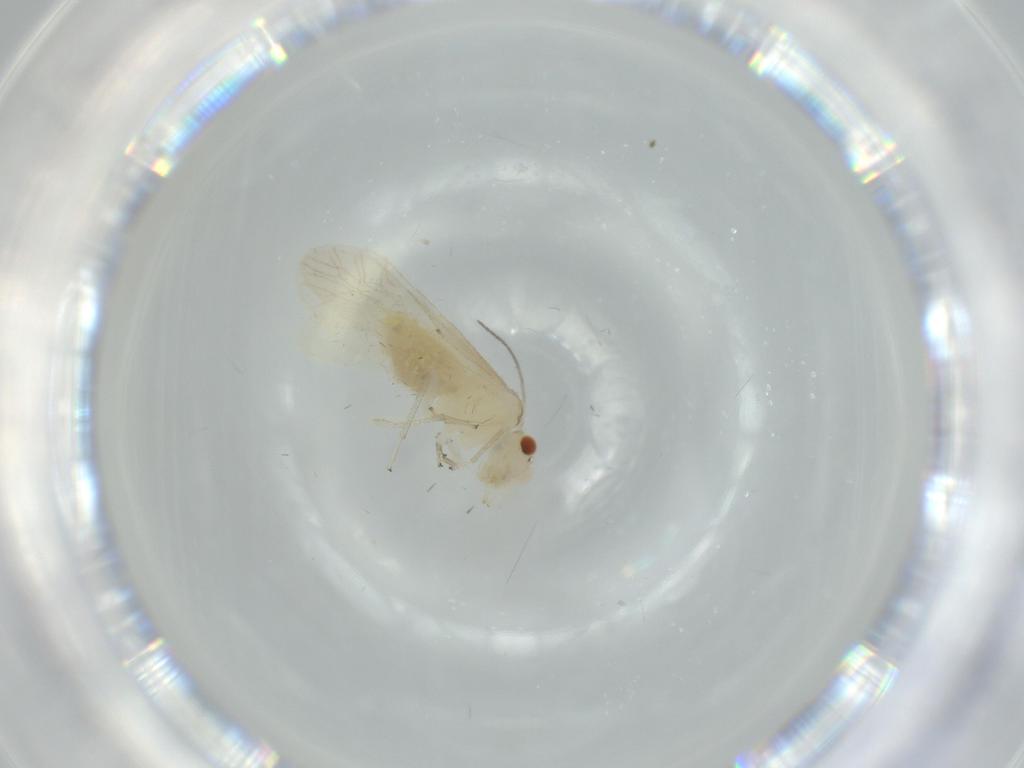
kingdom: Animalia
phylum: Arthropoda
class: Insecta
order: Psocodea
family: Caeciliusidae
